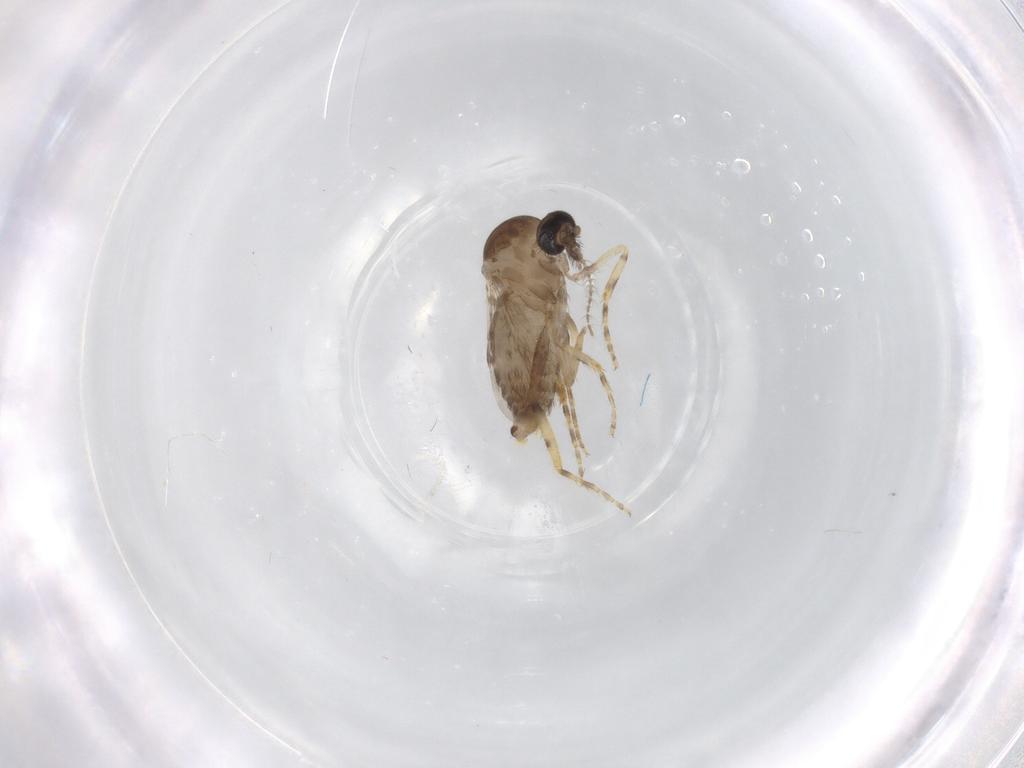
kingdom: Animalia
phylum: Arthropoda
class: Insecta
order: Diptera
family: Ceratopogonidae
